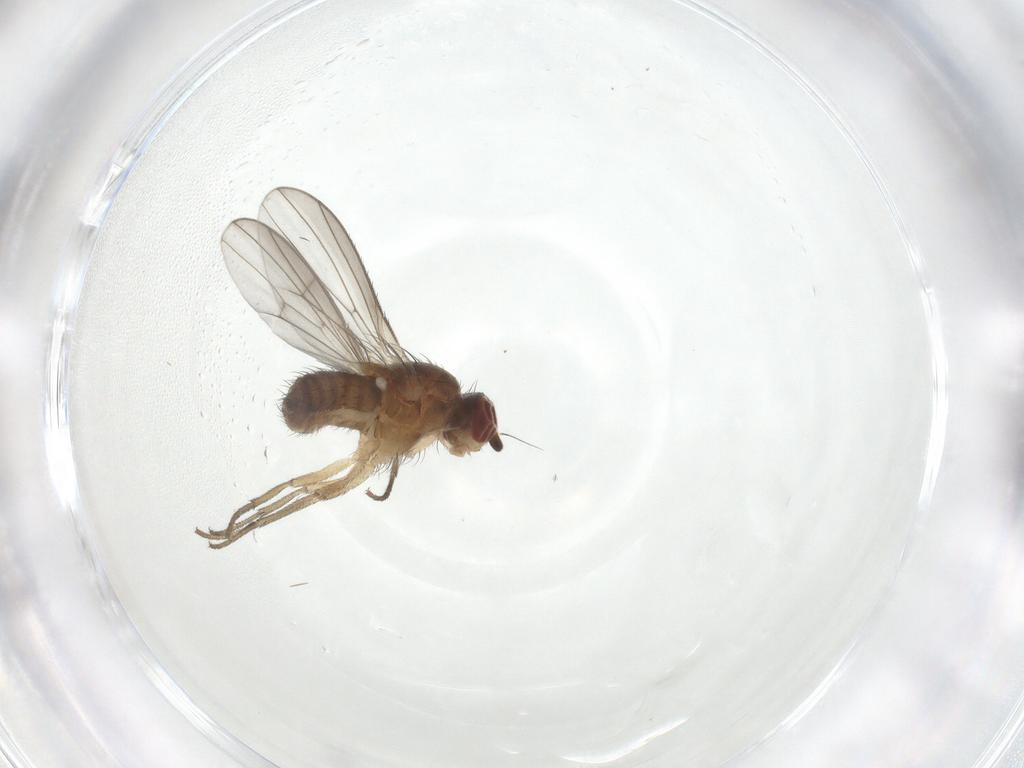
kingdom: Animalia
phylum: Arthropoda
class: Insecta
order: Diptera
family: Heleomyzidae
